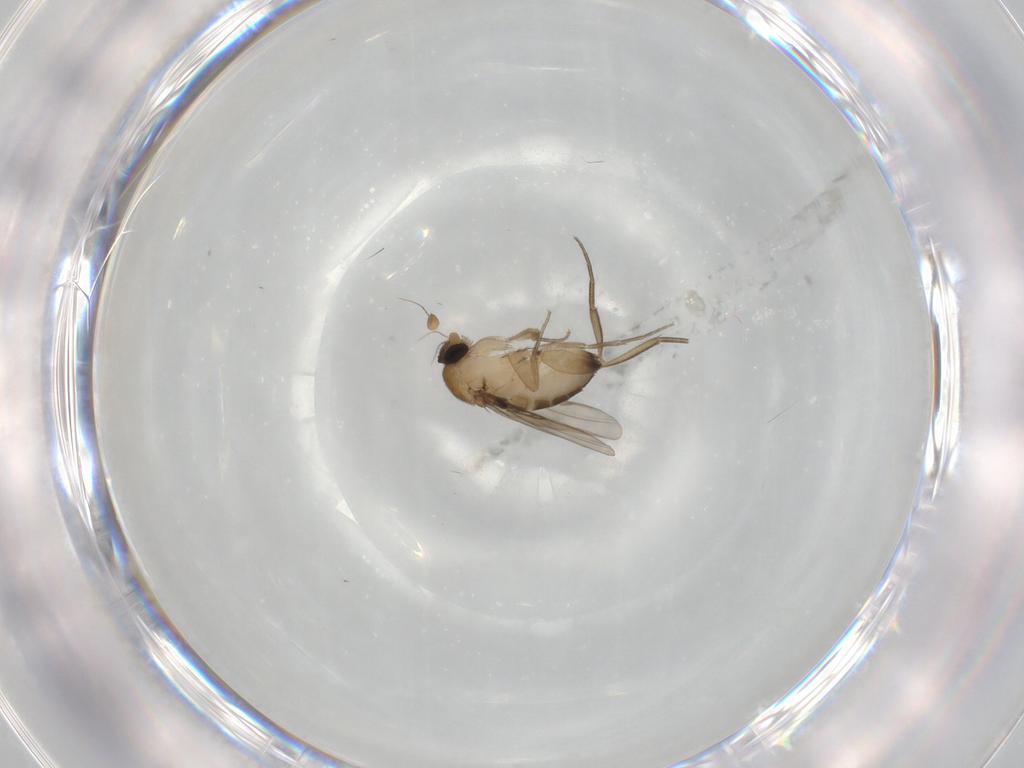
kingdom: Animalia
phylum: Arthropoda
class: Insecta
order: Diptera
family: Phoridae
